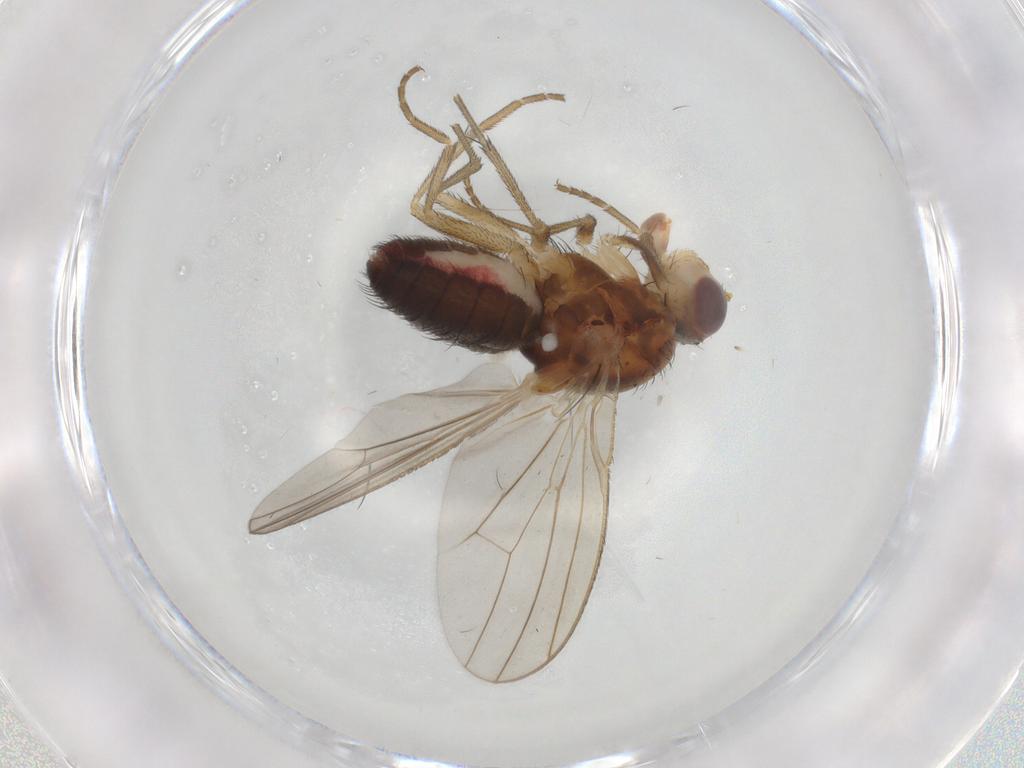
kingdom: Animalia
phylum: Arthropoda
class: Insecta
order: Diptera
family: Heleomyzidae
